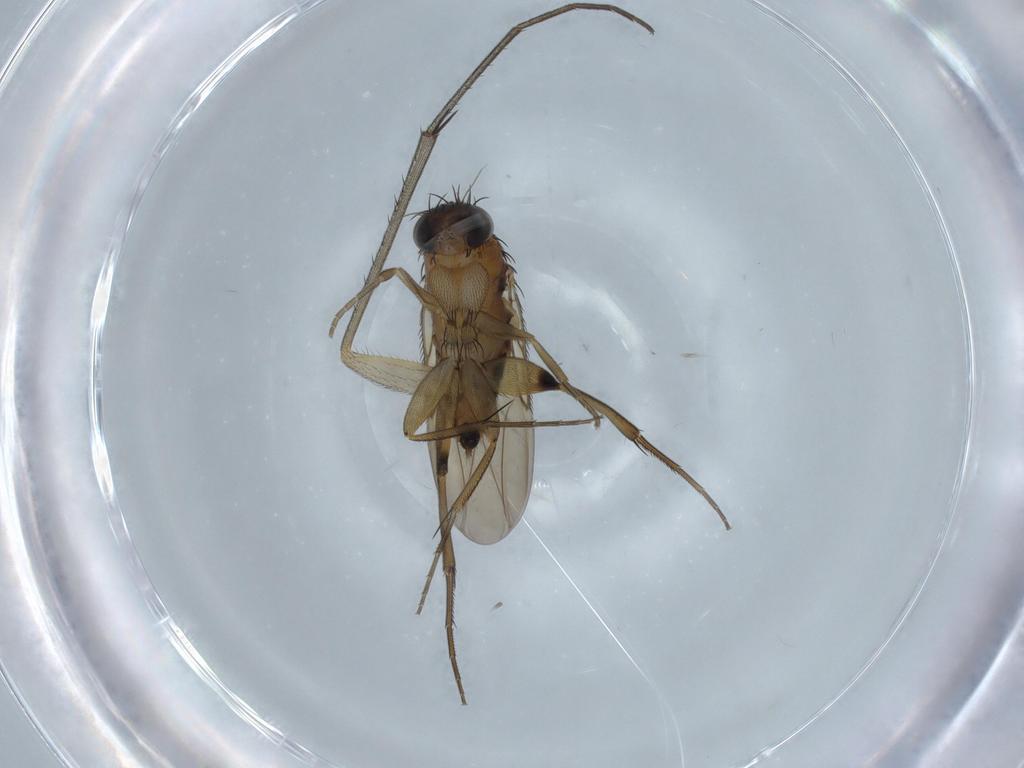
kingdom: Animalia
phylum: Arthropoda
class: Insecta
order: Diptera
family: Phoridae
